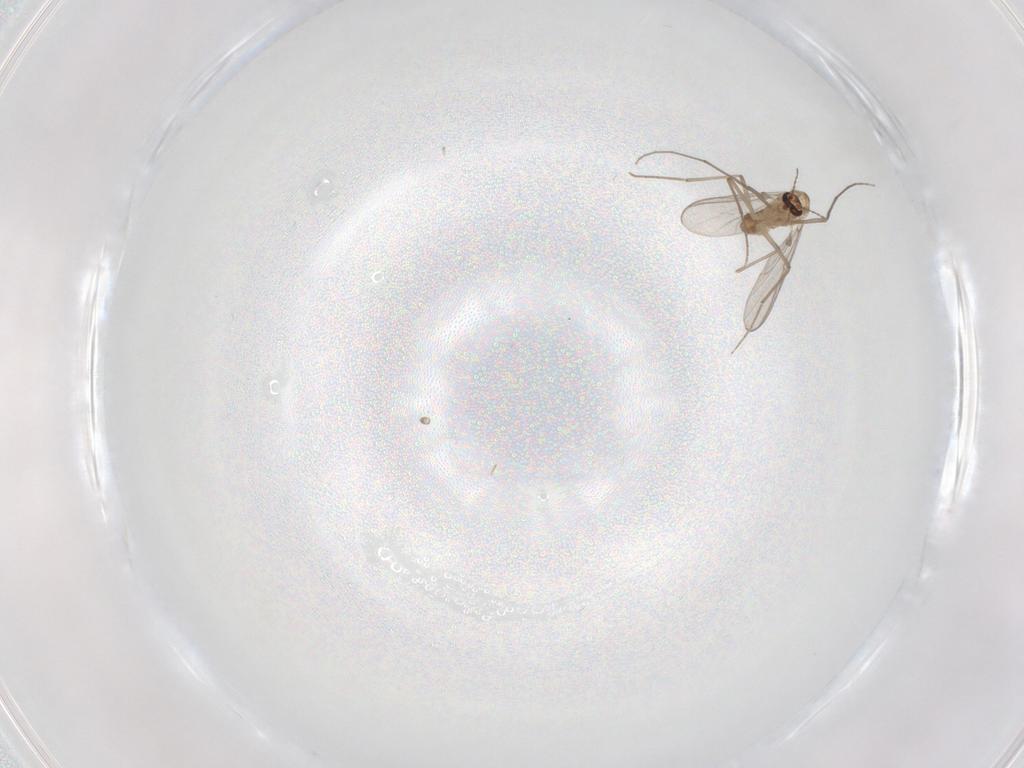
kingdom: Animalia
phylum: Arthropoda
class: Insecta
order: Diptera
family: Chironomidae
